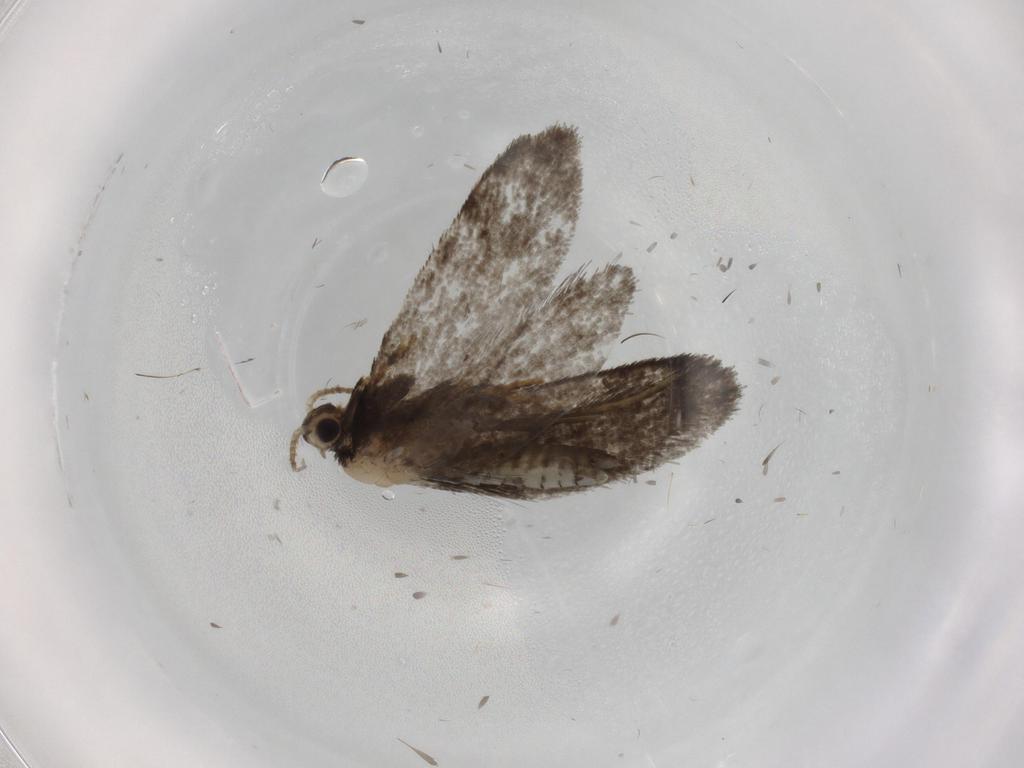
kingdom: Animalia
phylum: Arthropoda
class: Insecta
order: Lepidoptera
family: Psychidae
